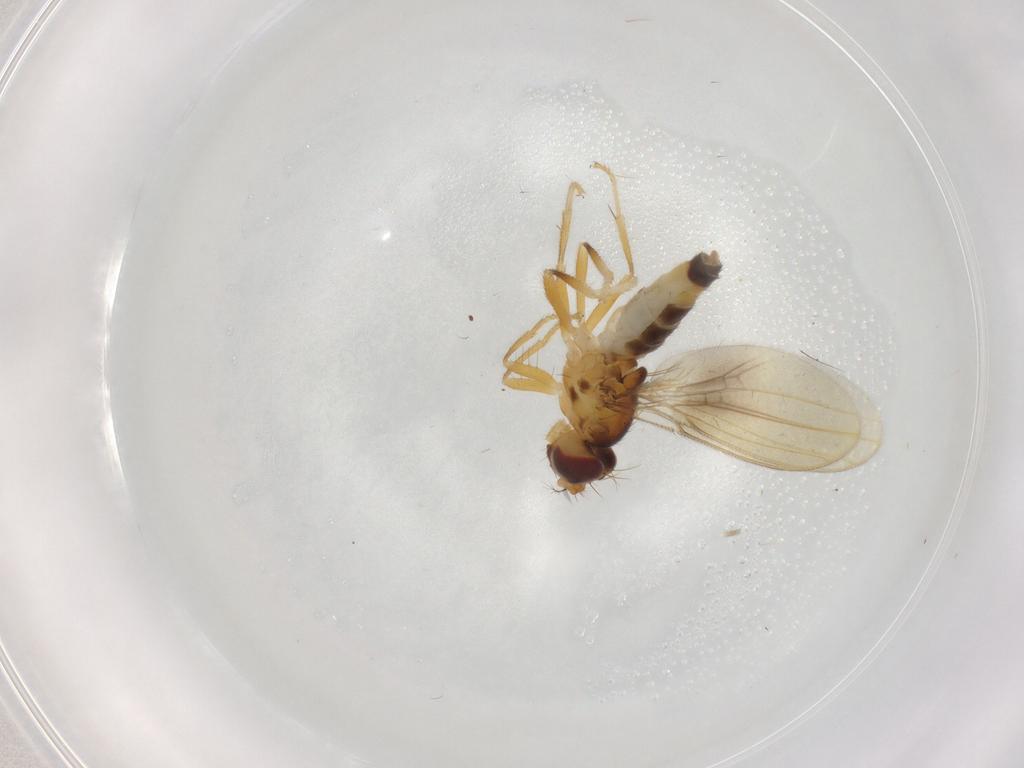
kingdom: Animalia
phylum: Arthropoda
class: Insecta
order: Diptera
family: Periscelididae
